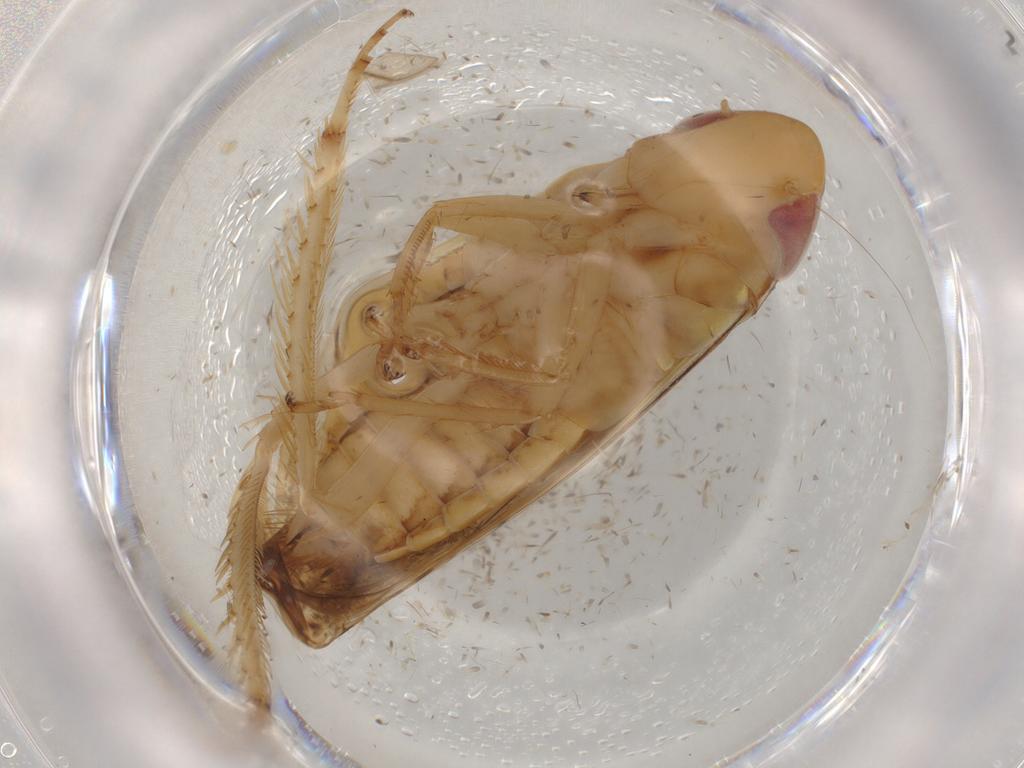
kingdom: Animalia
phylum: Arthropoda
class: Insecta
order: Hemiptera
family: Cicadellidae
